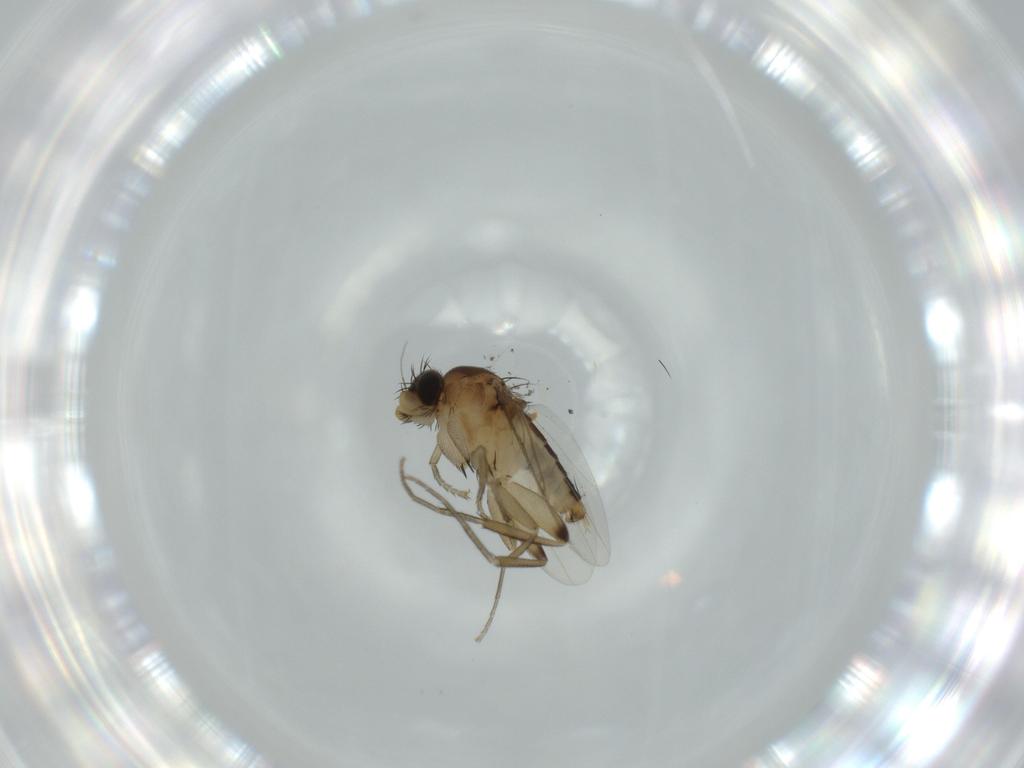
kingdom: Animalia
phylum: Arthropoda
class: Insecta
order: Diptera
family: Phoridae
